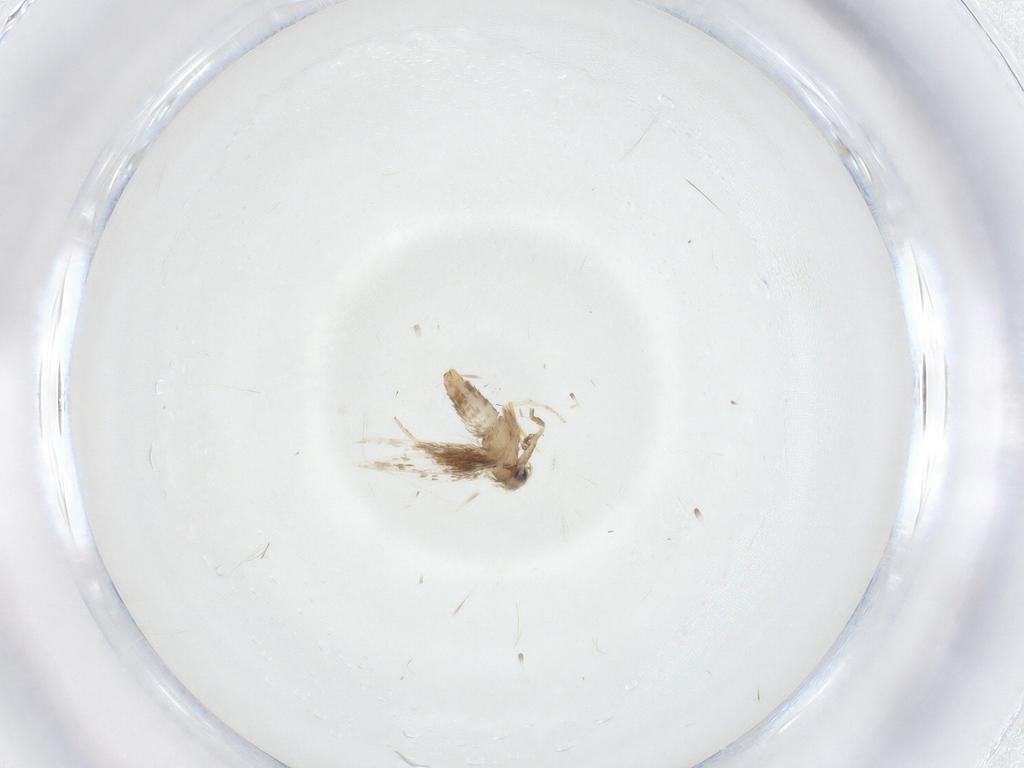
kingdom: Animalia
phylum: Arthropoda
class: Insecta
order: Lepidoptera
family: Nepticulidae
